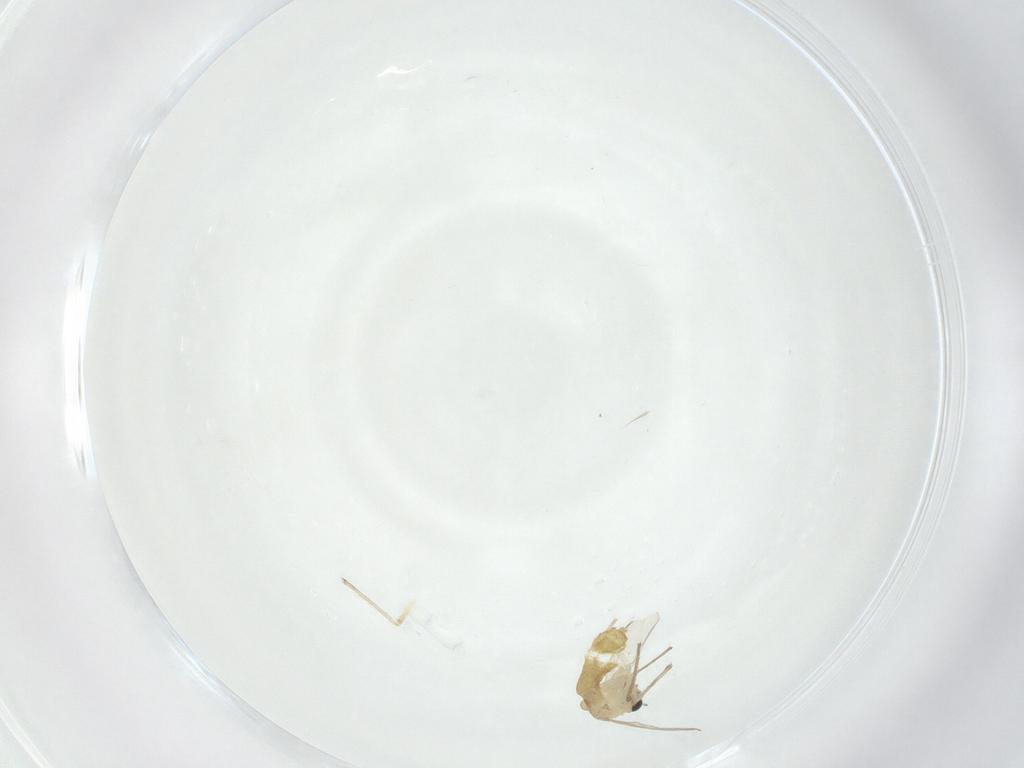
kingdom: Animalia
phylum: Arthropoda
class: Insecta
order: Diptera
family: Chironomidae
